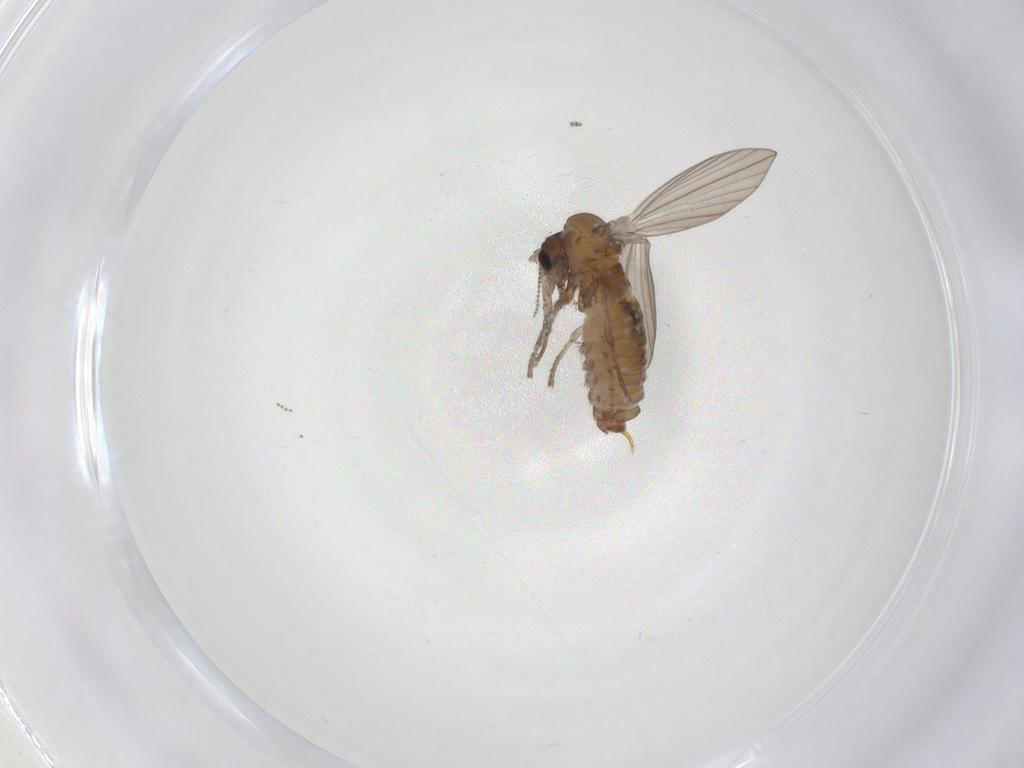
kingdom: Animalia
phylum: Arthropoda
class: Insecta
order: Diptera
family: Psychodidae
